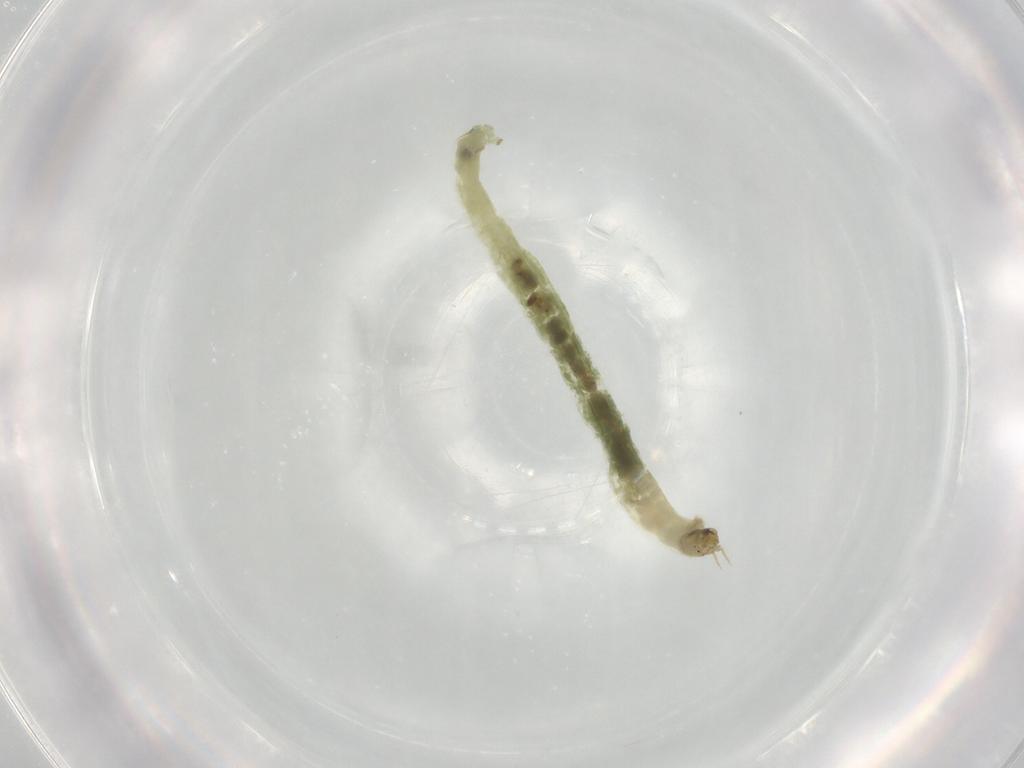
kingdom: Animalia
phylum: Arthropoda
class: Insecta
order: Diptera
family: Chironomidae
